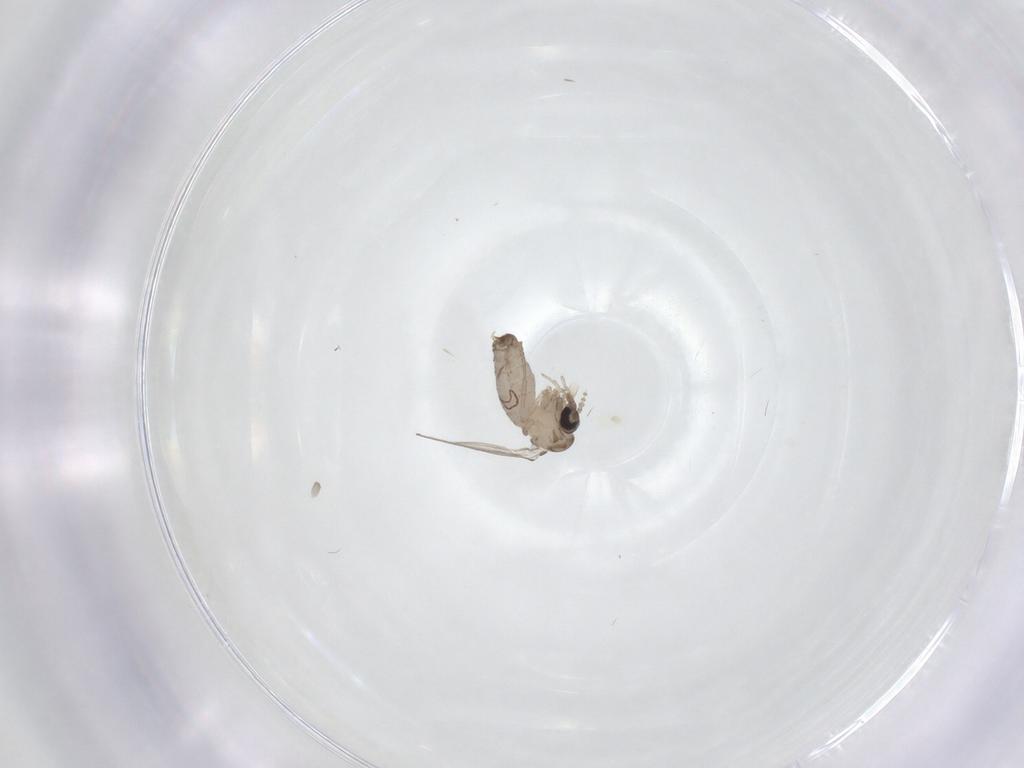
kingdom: Animalia
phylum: Arthropoda
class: Insecta
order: Diptera
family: Psychodidae
